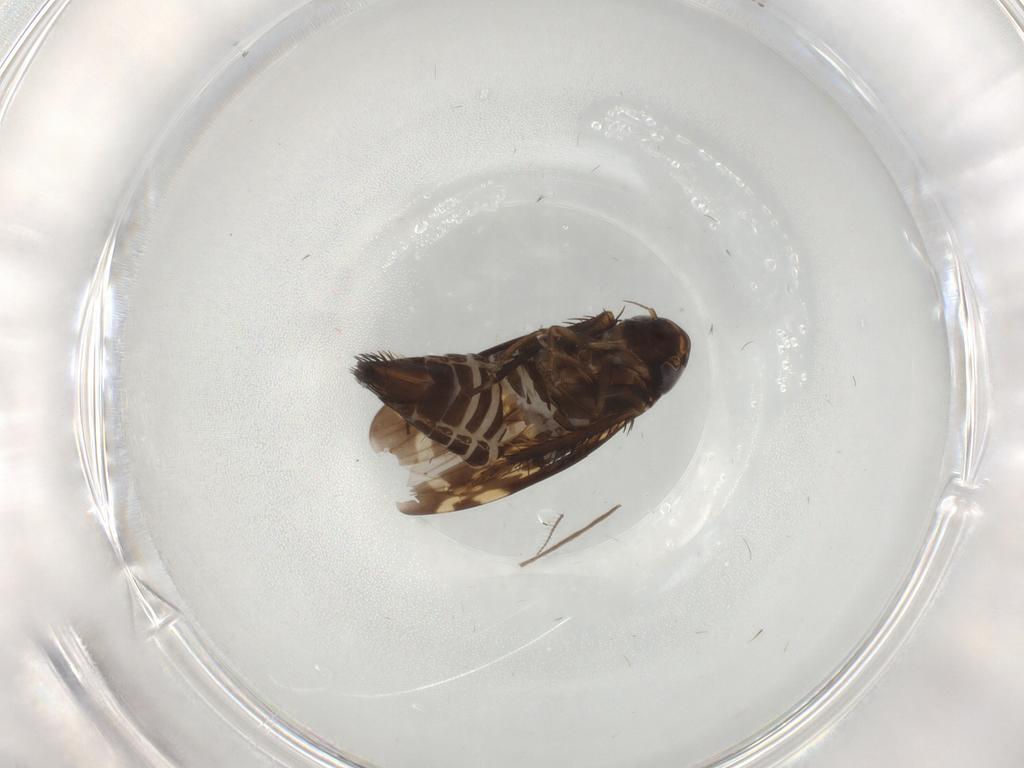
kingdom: Animalia
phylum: Arthropoda
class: Insecta
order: Hemiptera
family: Cicadellidae
